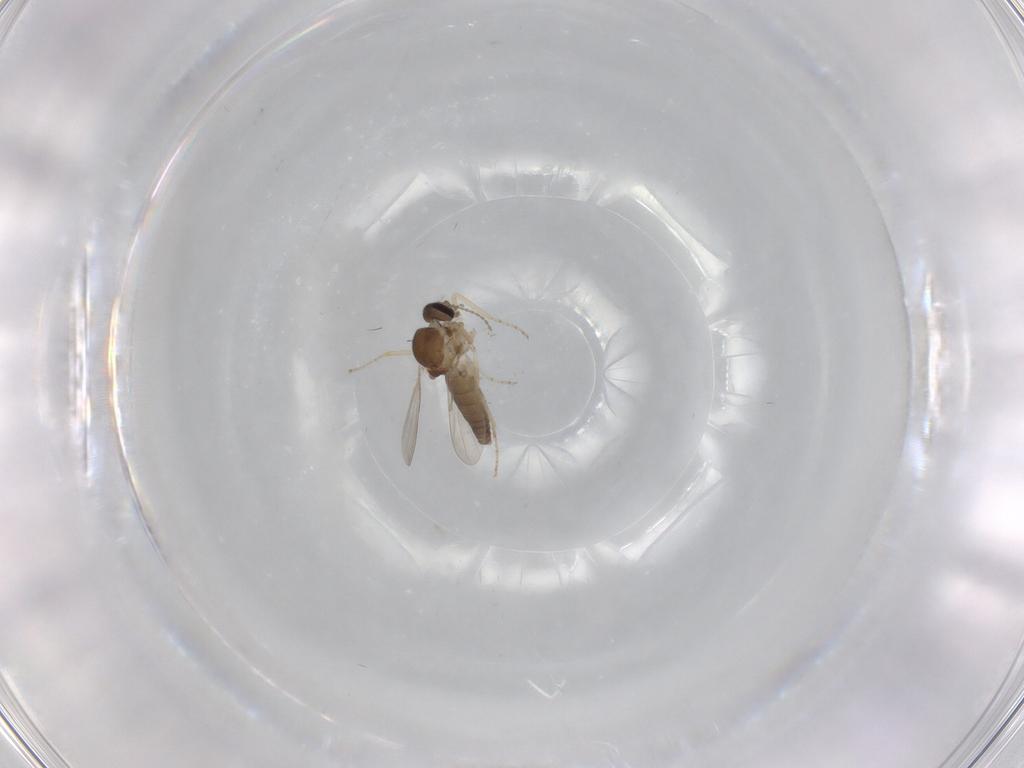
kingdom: Animalia
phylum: Arthropoda
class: Insecta
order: Diptera
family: Ceratopogonidae
